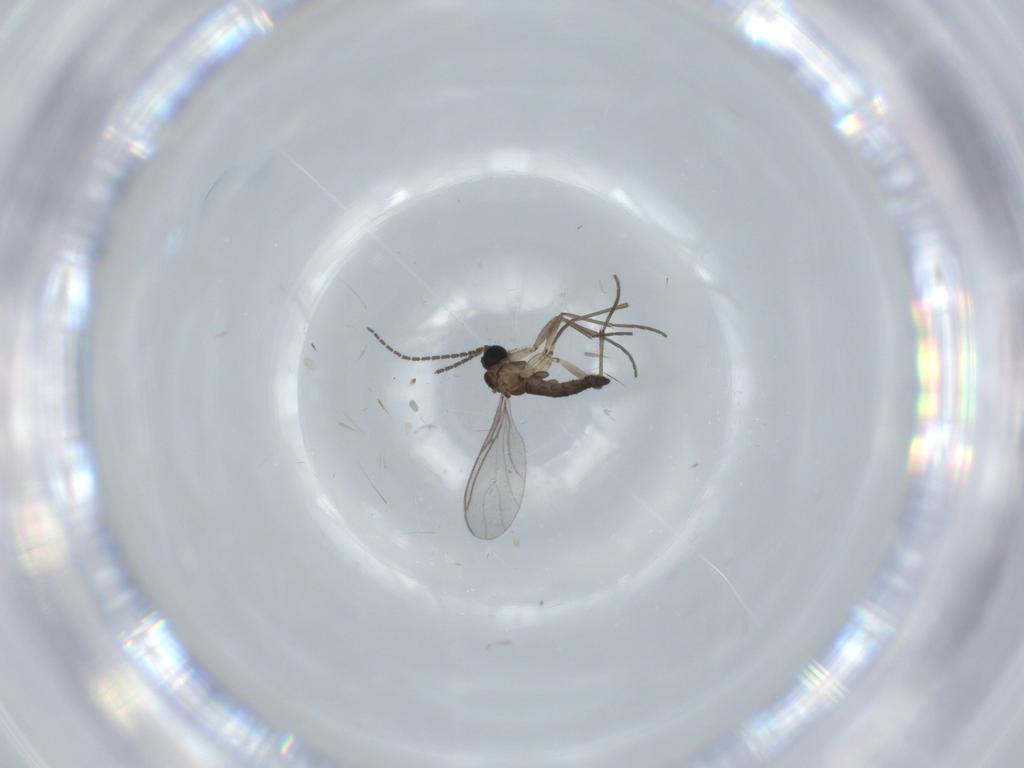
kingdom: Animalia
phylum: Arthropoda
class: Insecta
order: Diptera
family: Sciaridae
